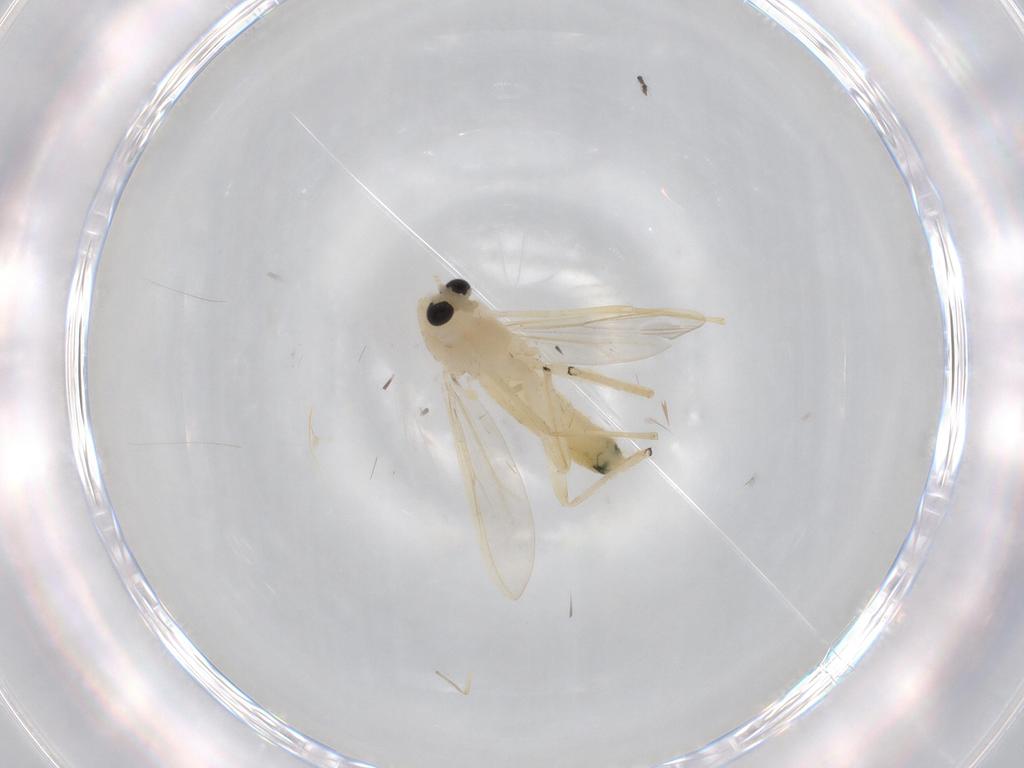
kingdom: Animalia
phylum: Arthropoda
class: Insecta
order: Diptera
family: Chironomidae
